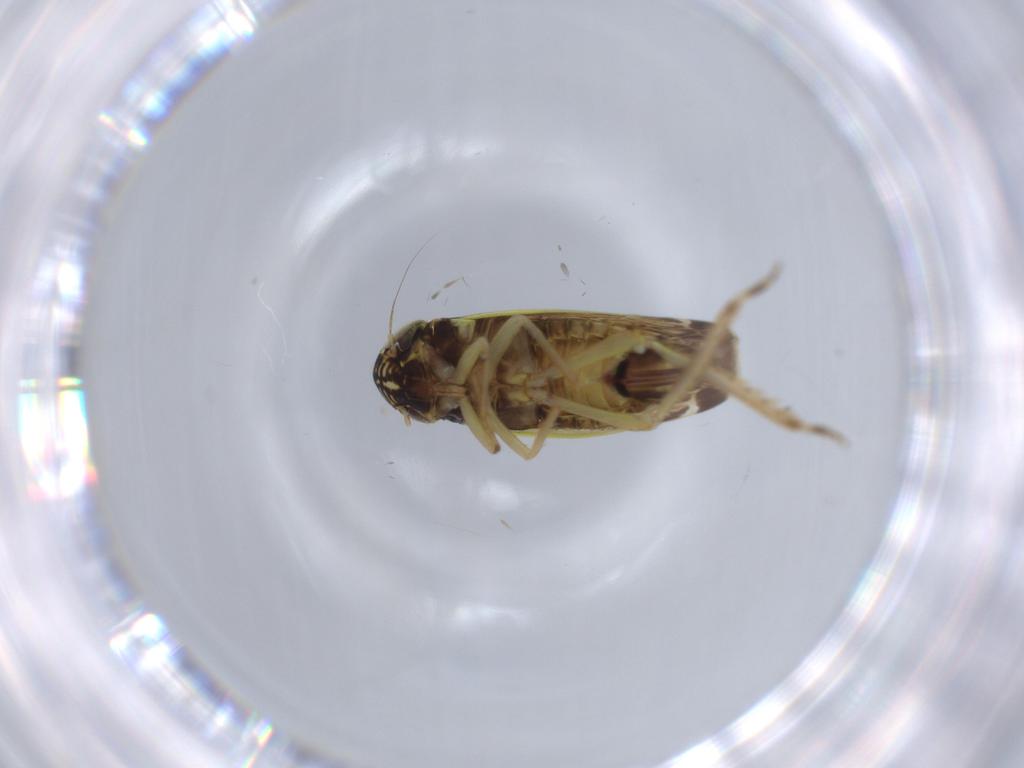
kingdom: Animalia
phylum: Arthropoda
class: Insecta
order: Hemiptera
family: Cicadellidae
